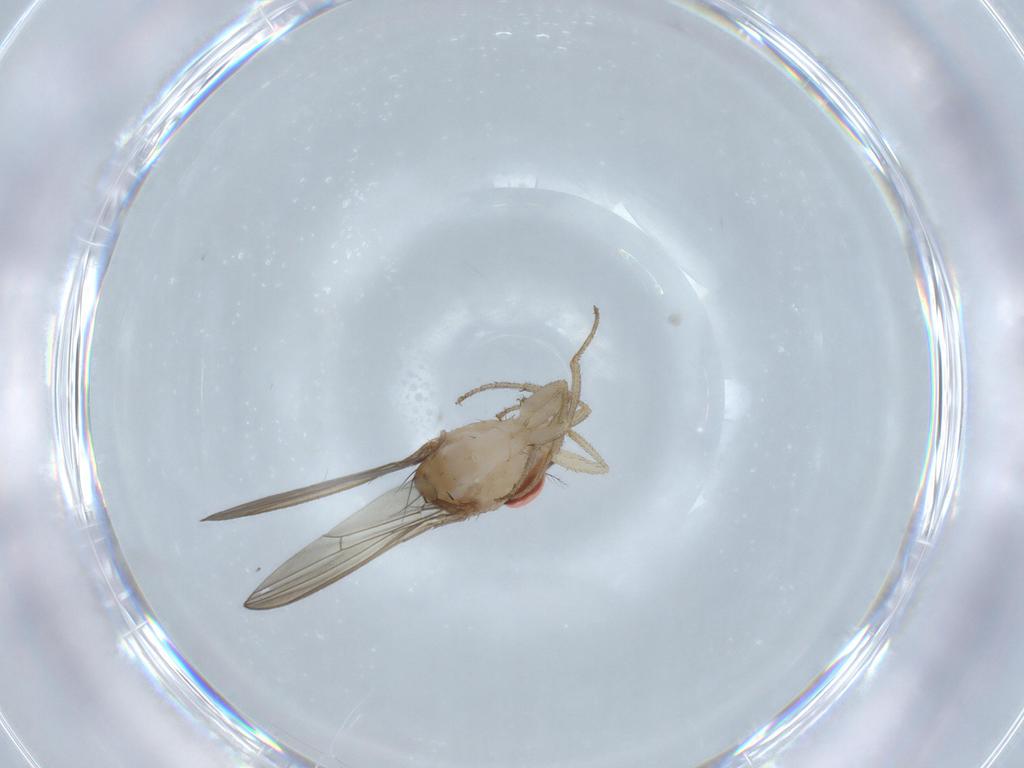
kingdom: Animalia
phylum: Arthropoda
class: Insecta
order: Diptera
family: Drosophilidae
